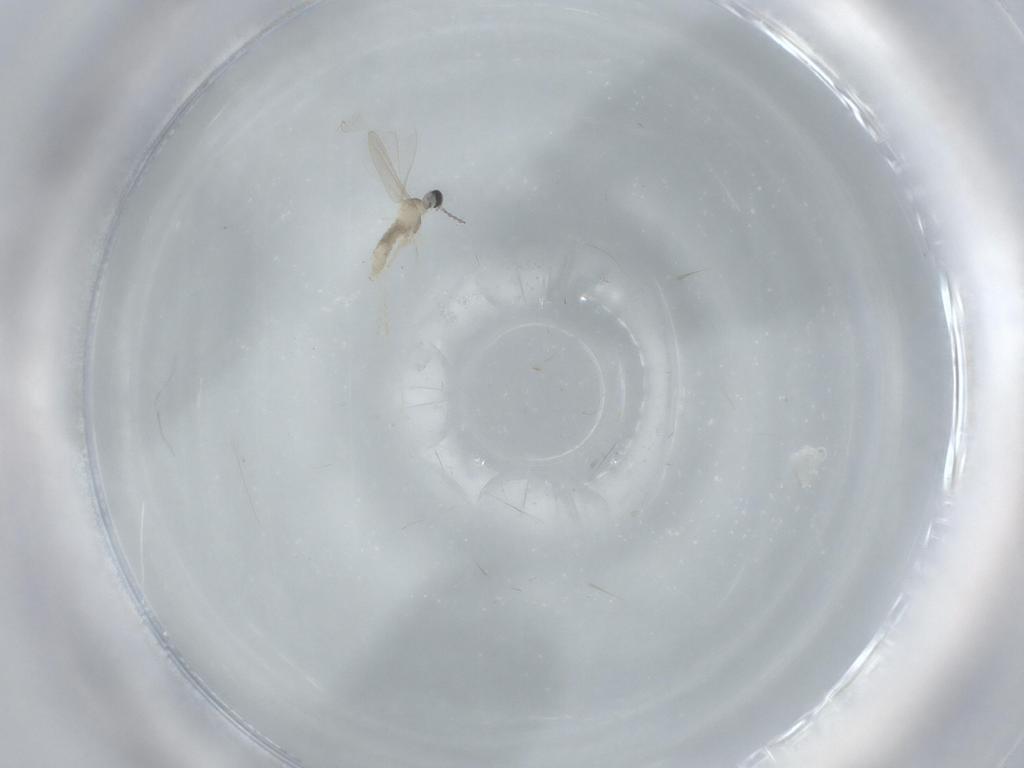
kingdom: Animalia
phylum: Arthropoda
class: Insecta
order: Diptera
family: Chironomidae
